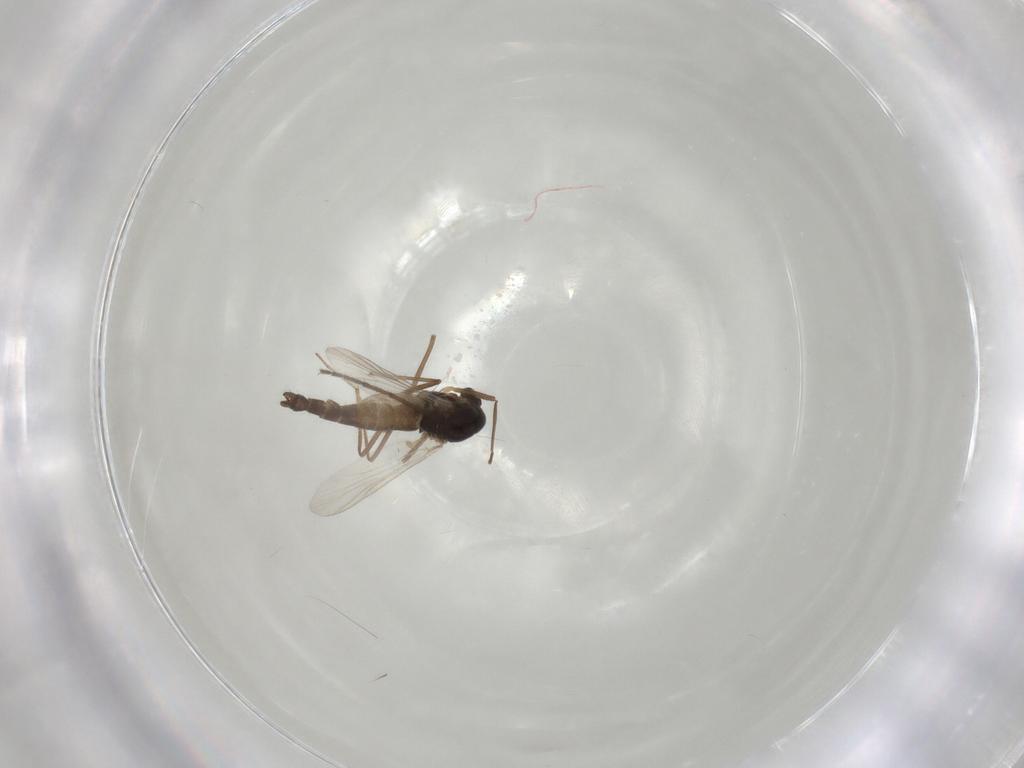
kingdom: Animalia
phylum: Arthropoda
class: Insecta
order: Diptera
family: Chironomidae
